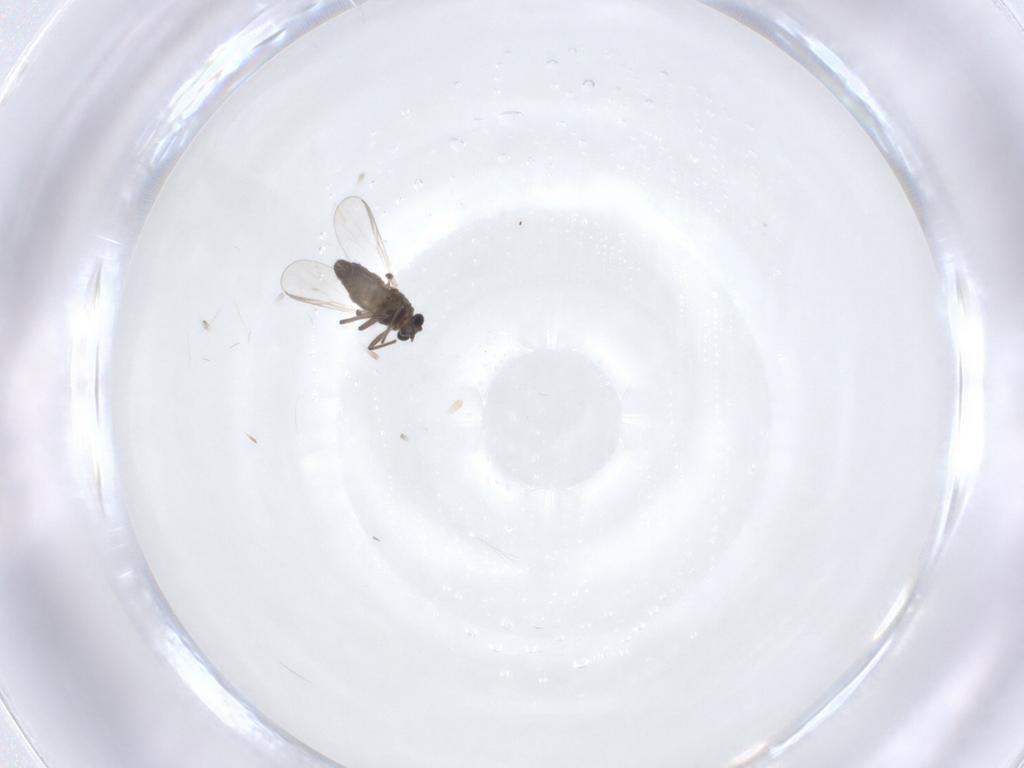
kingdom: Animalia
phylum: Arthropoda
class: Insecta
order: Diptera
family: Chironomidae
